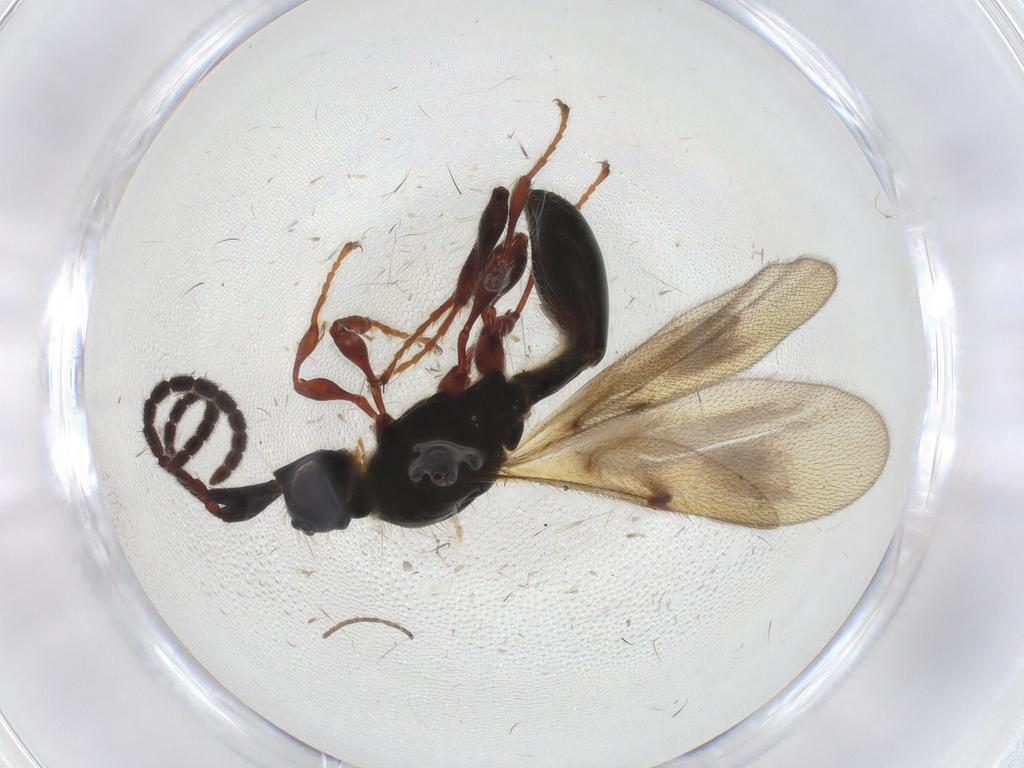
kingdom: Animalia
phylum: Arthropoda
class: Insecta
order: Hymenoptera
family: Diapriidae
